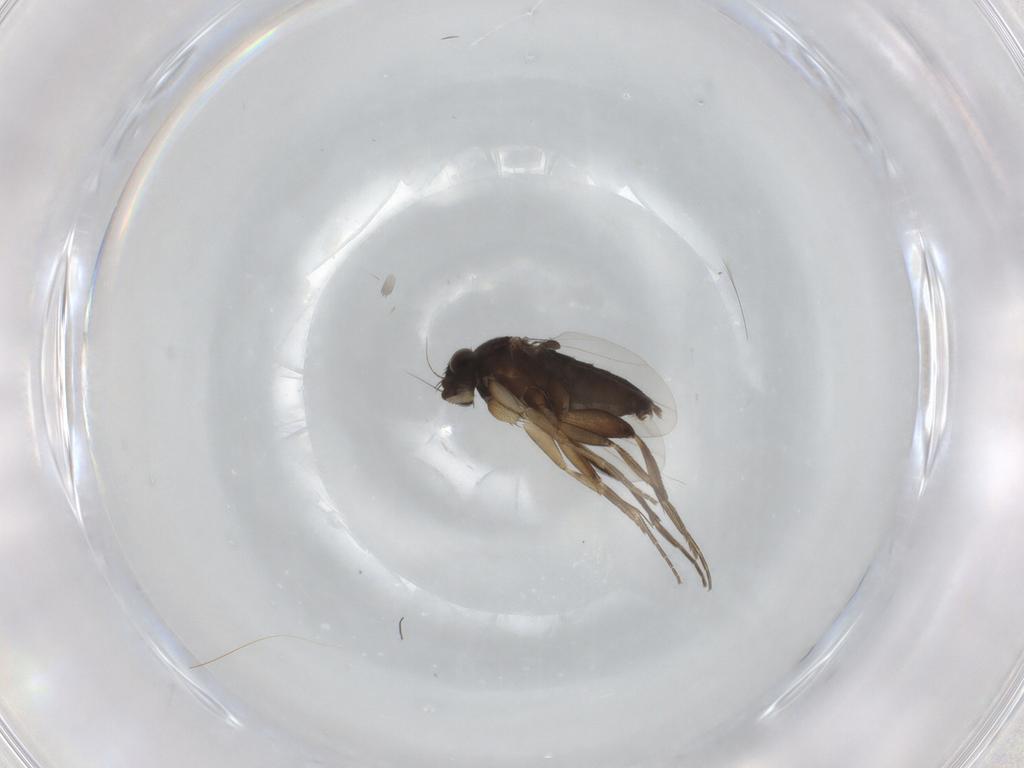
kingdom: Animalia
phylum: Arthropoda
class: Insecta
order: Diptera
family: Phoridae
